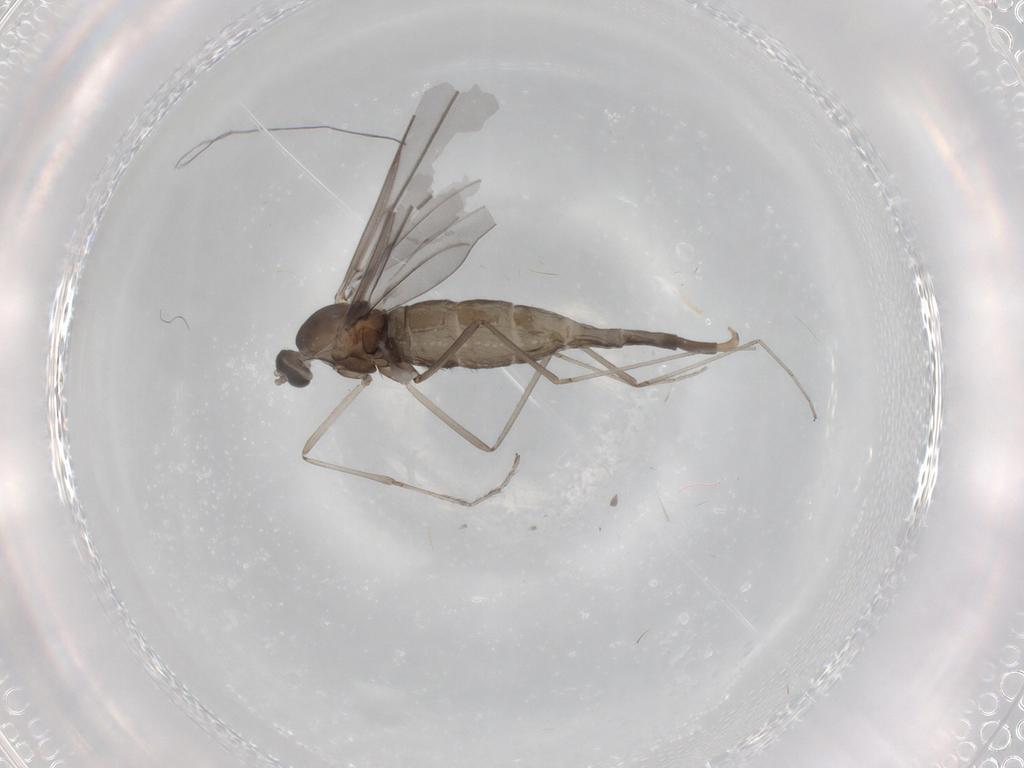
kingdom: Animalia
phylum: Arthropoda
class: Insecta
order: Diptera
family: Cecidomyiidae
